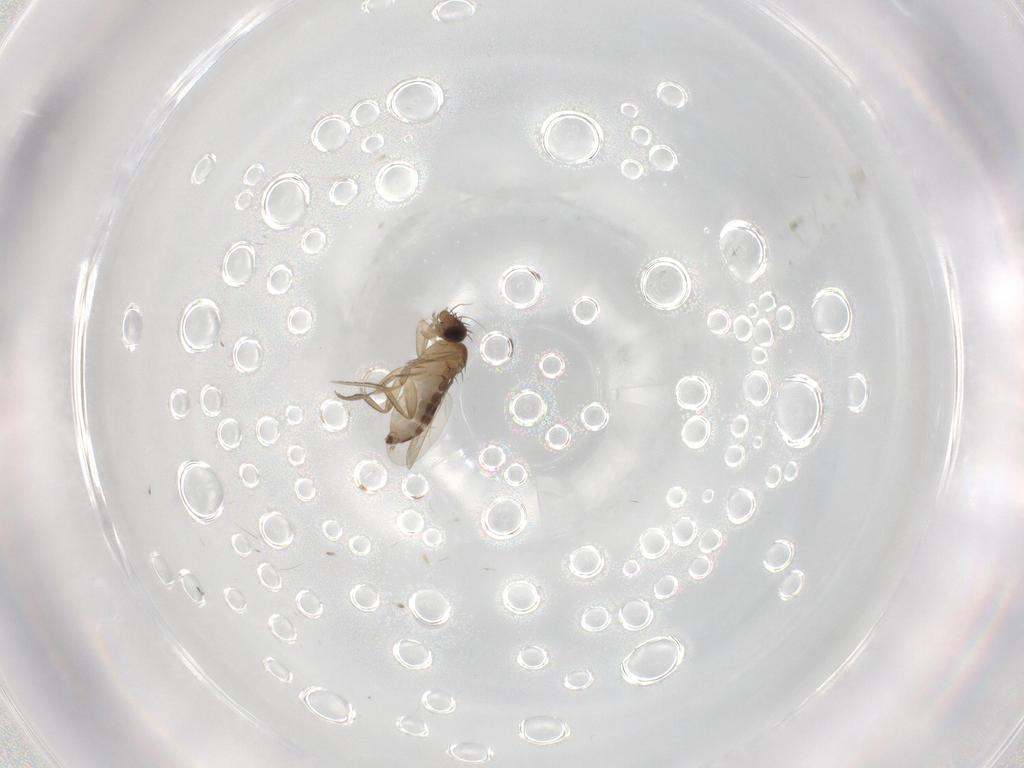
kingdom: Animalia
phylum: Arthropoda
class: Insecta
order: Diptera
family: Phoridae
